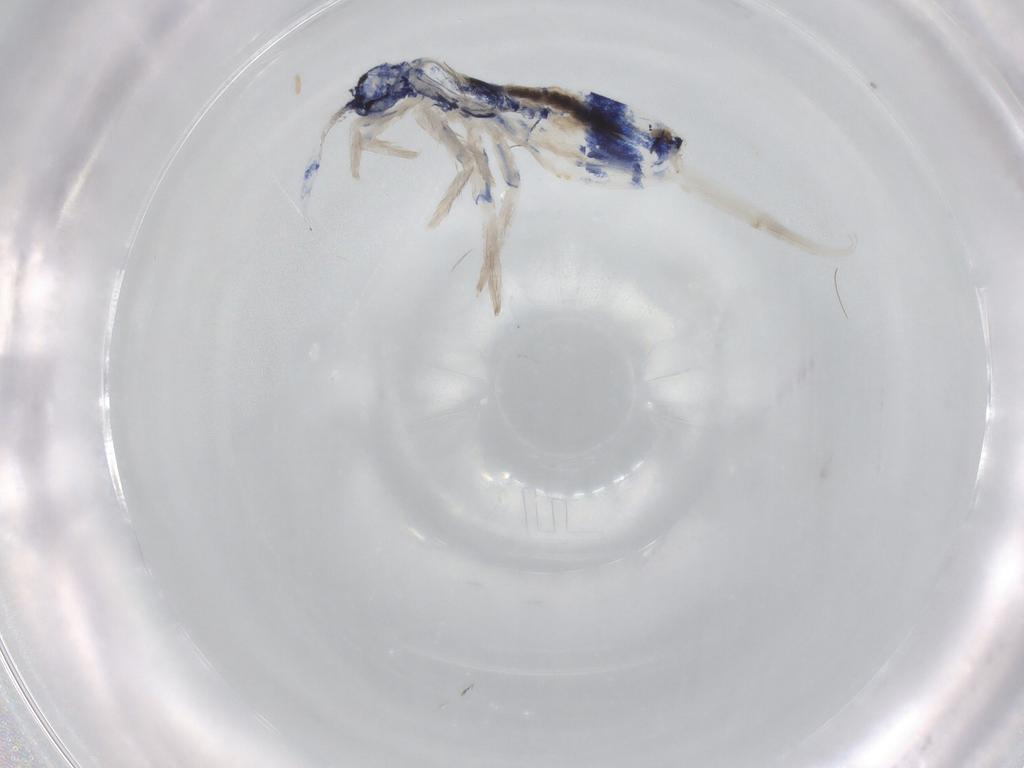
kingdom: Animalia
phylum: Arthropoda
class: Collembola
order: Entomobryomorpha
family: Tomoceridae
